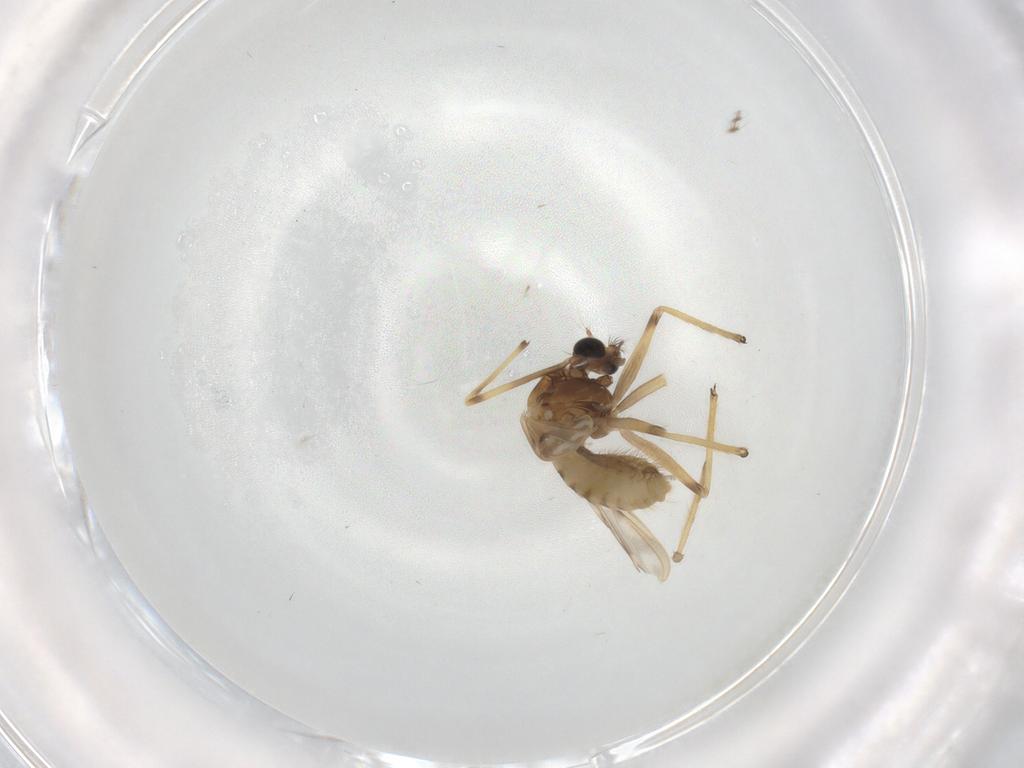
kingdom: Animalia
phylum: Arthropoda
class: Insecta
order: Diptera
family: Chironomidae
